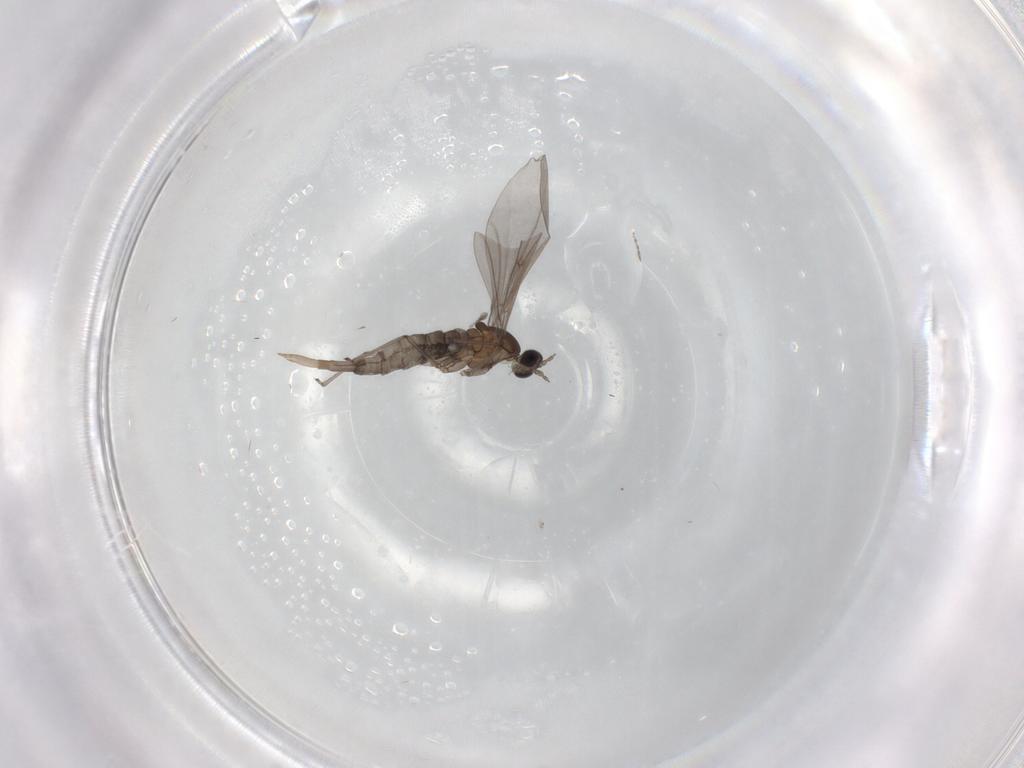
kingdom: Animalia
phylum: Arthropoda
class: Insecta
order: Diptera
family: Cecidomyiidae
